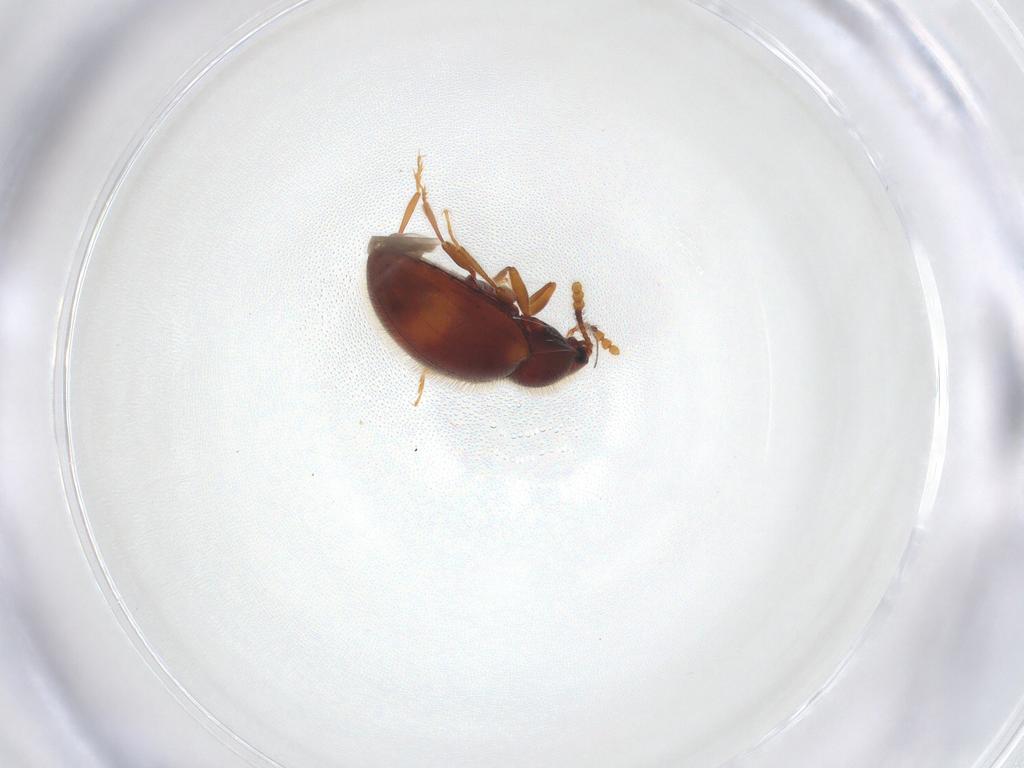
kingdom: Animalia
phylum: Arthropoda
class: Insecta
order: Coleoptera
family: Erotylidae
